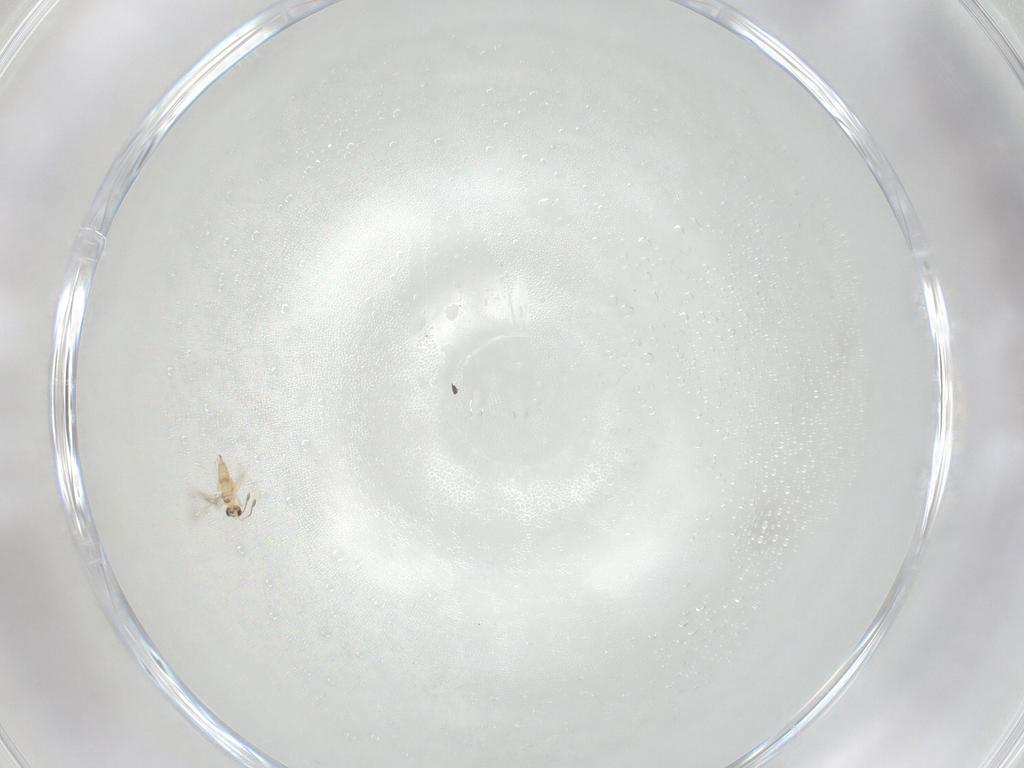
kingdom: Animalia
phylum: Arthropoda
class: Insecta
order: Hymenoptera
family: Mymaridae
